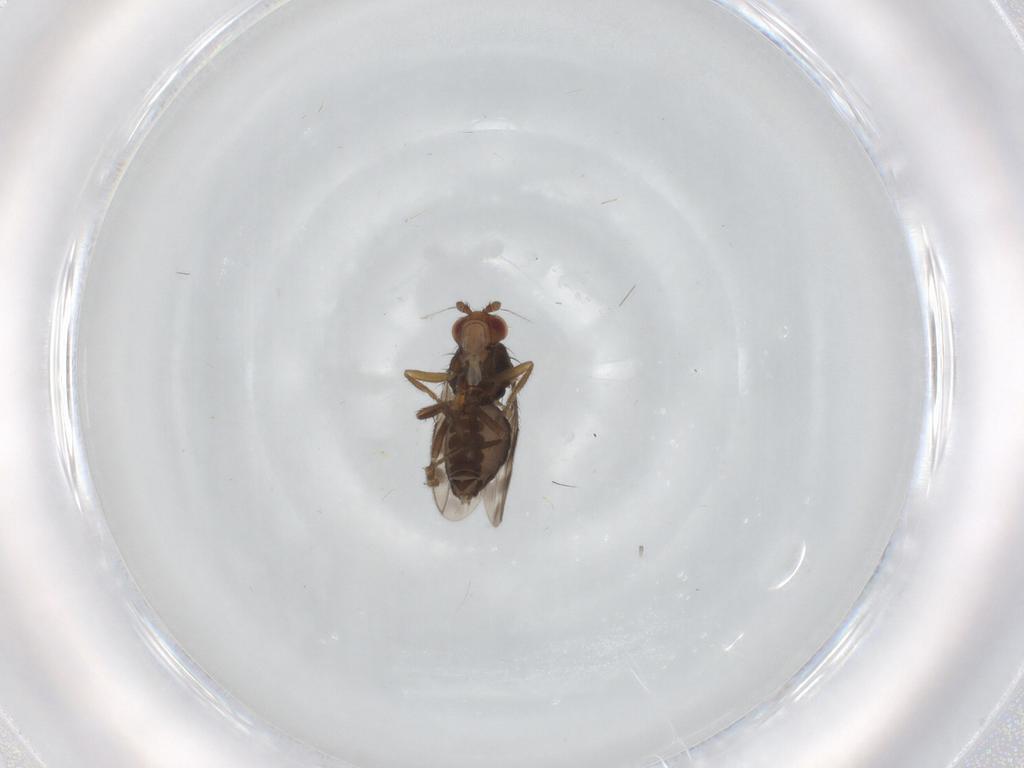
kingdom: Animalia
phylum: Arthropoda
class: Insecta
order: Diptera
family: Sphaeroceridae
